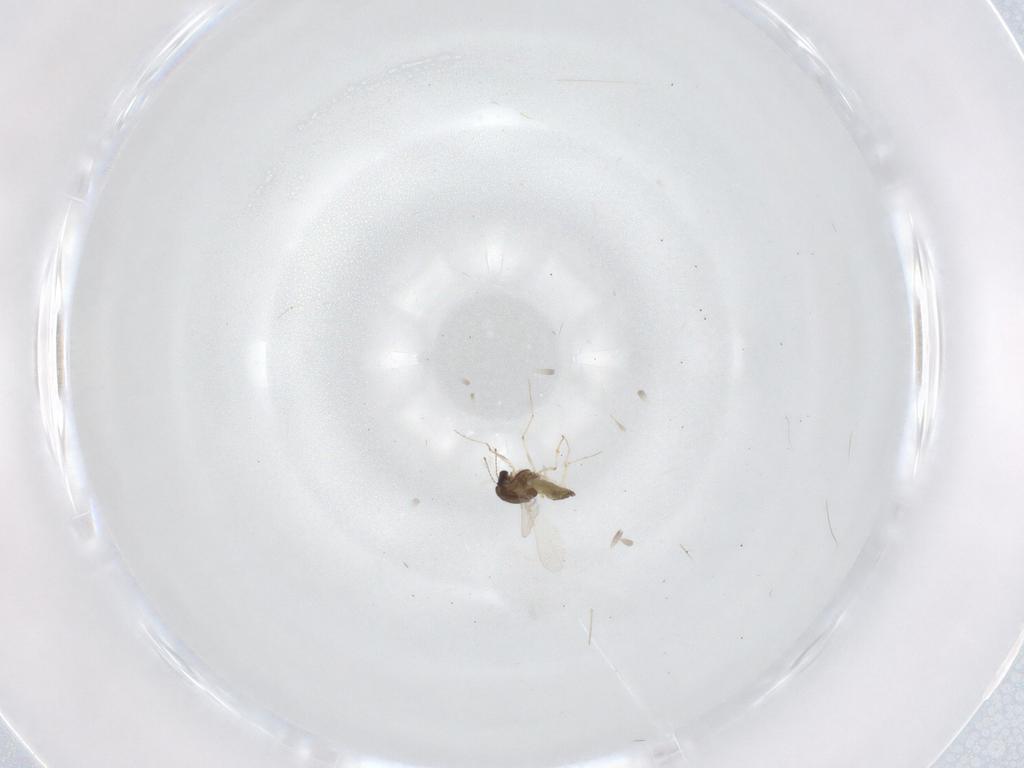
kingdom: Animalia
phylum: Arthropoda
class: Insecta
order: Diptera
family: Chironomidae
